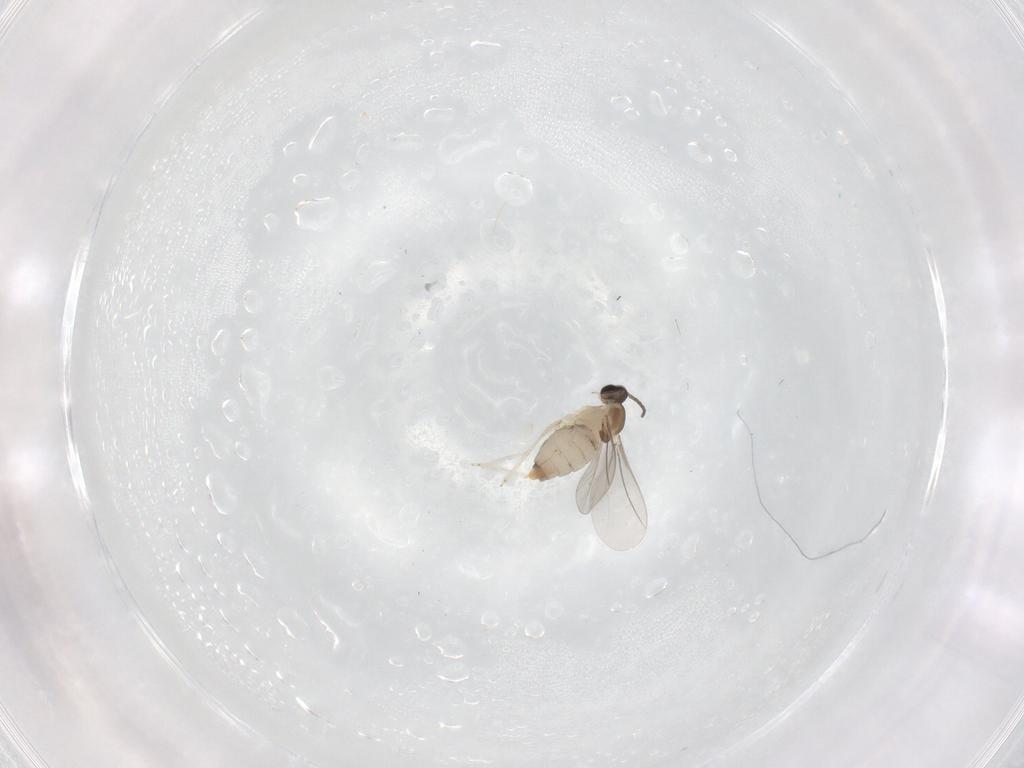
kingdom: Animalia
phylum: Arthropoda
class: Insecta
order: Diptera
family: Cecidomyiidae
